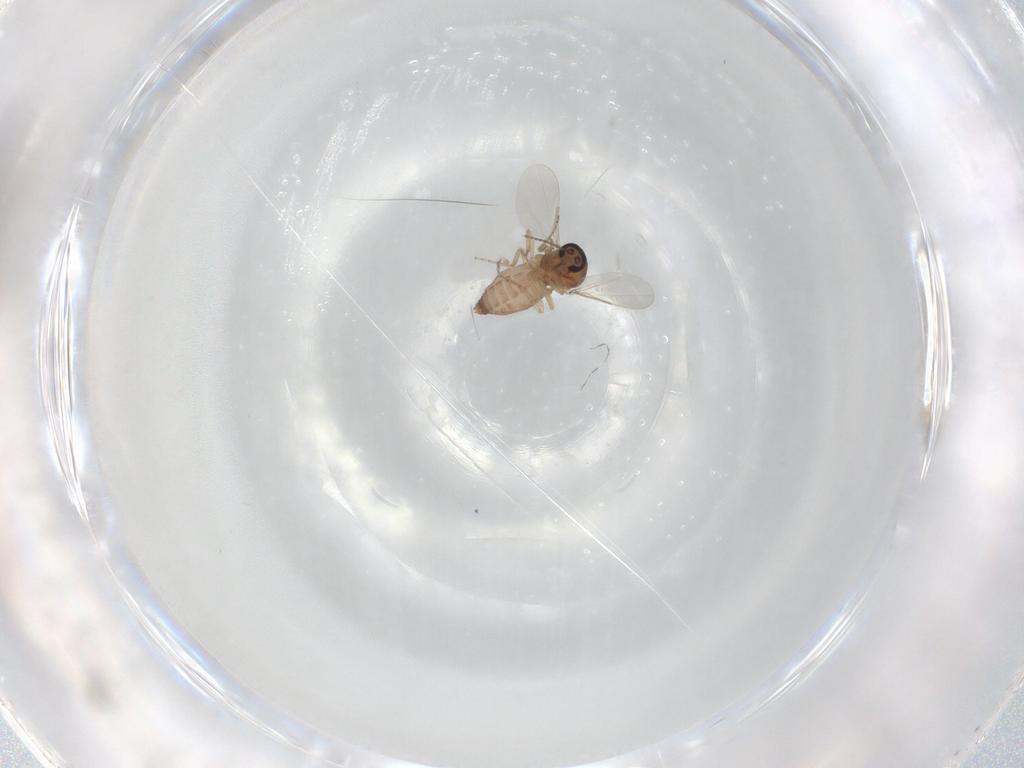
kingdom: Animalia
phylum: Arthropoda
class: Insecta
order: Diptera
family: Ceratopogonidae
